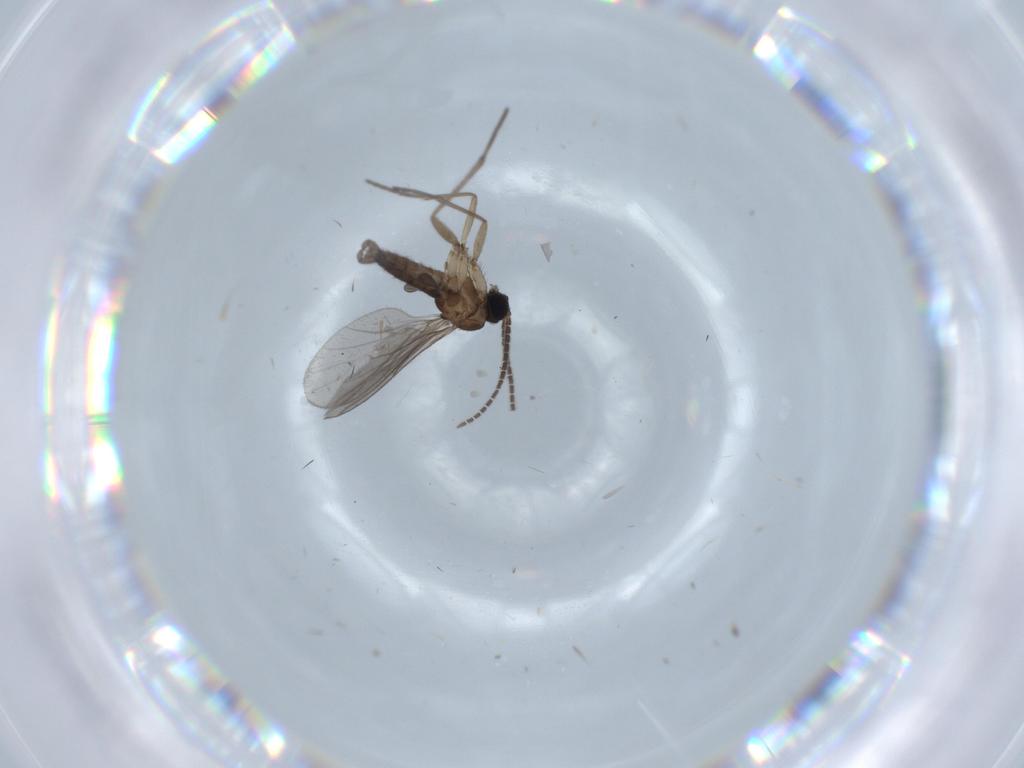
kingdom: Animalia
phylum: Arthropoda
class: Insecta
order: Diptera
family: Sciaridae
